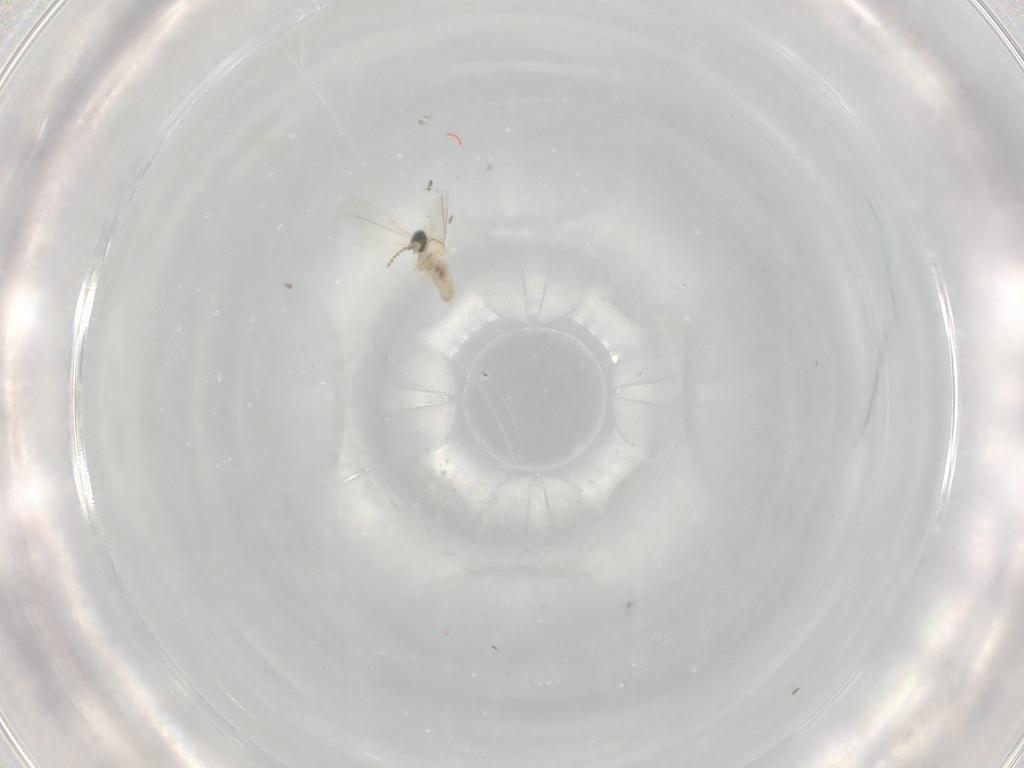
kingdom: Animalia
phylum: Arthropoda
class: Insecta
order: Diptera
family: Cecidomyiidae
